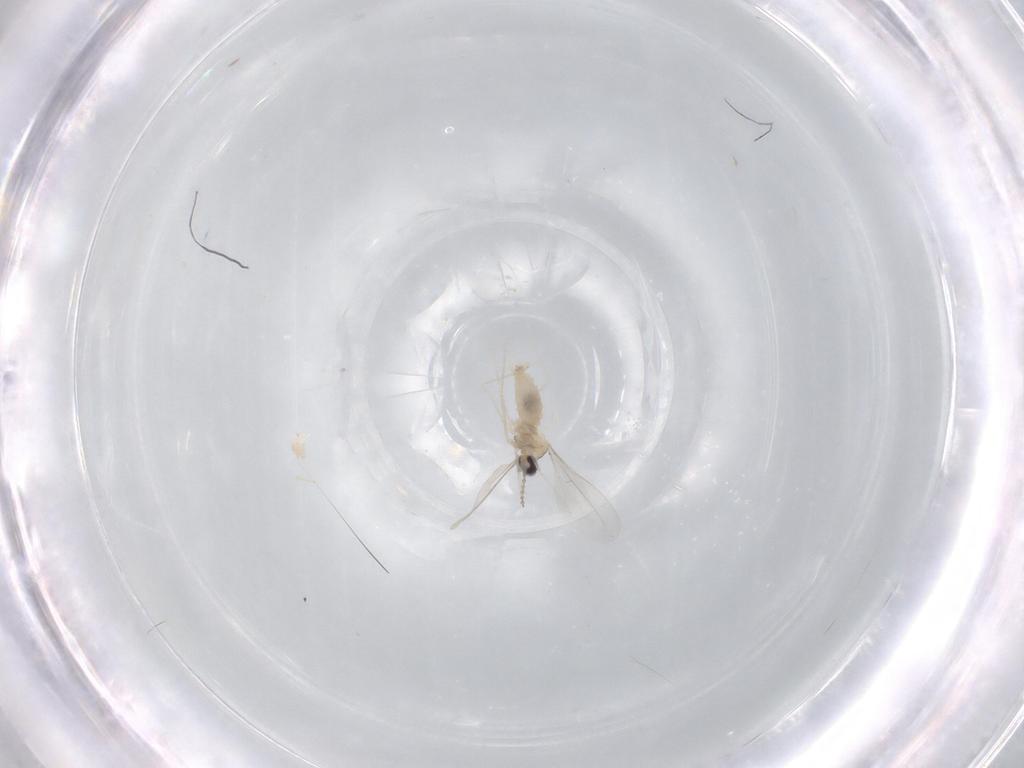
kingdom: Animalia
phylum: Arthropoda
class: Insecta
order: Diptera
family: Cecidomyiidae
